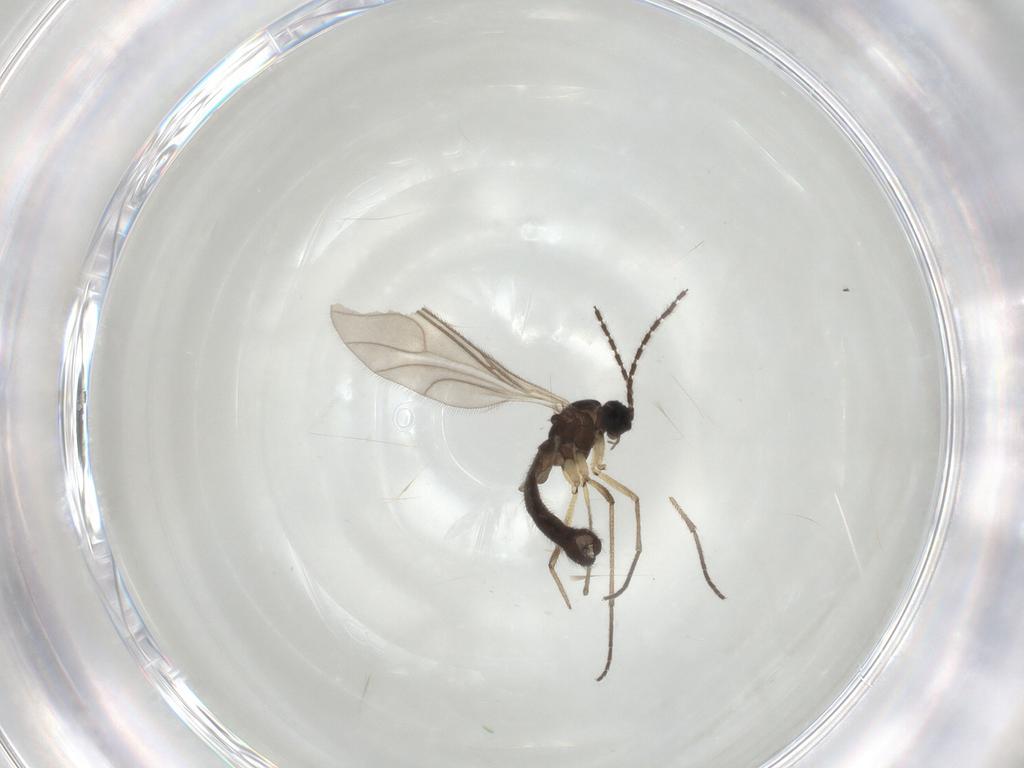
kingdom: Animalia
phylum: Arthropoda
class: Insecta
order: Diptera
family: Sciaridae
